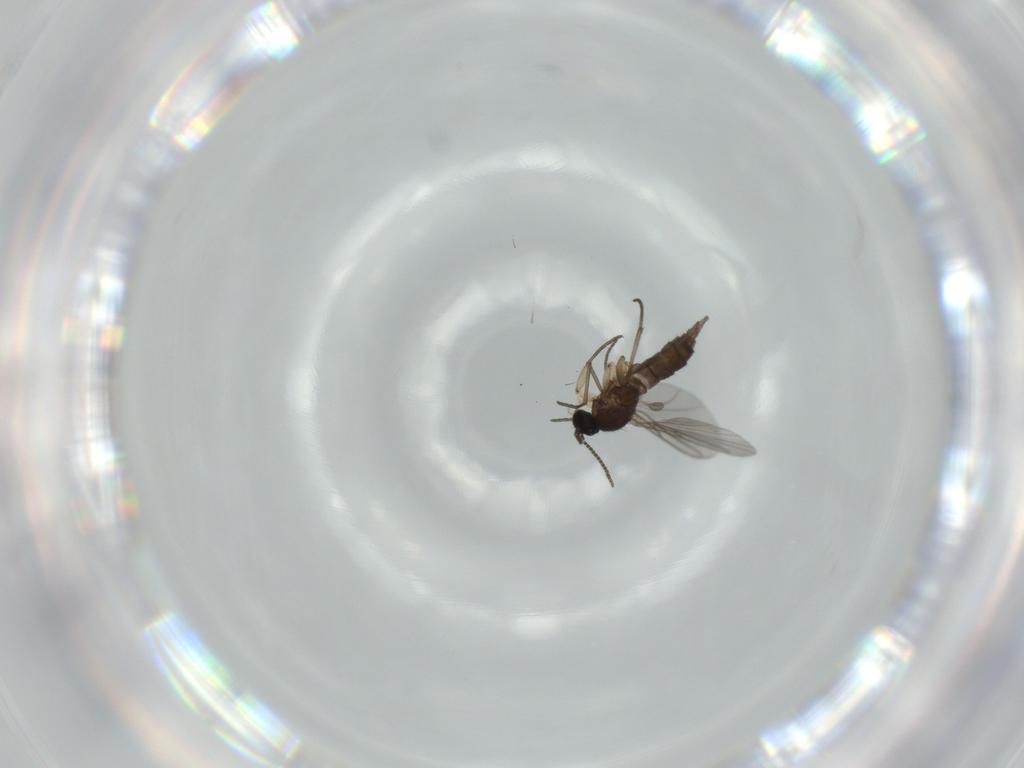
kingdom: Animalia
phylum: Arthropoda
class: Insecta
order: Diptera
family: Sciaridae
